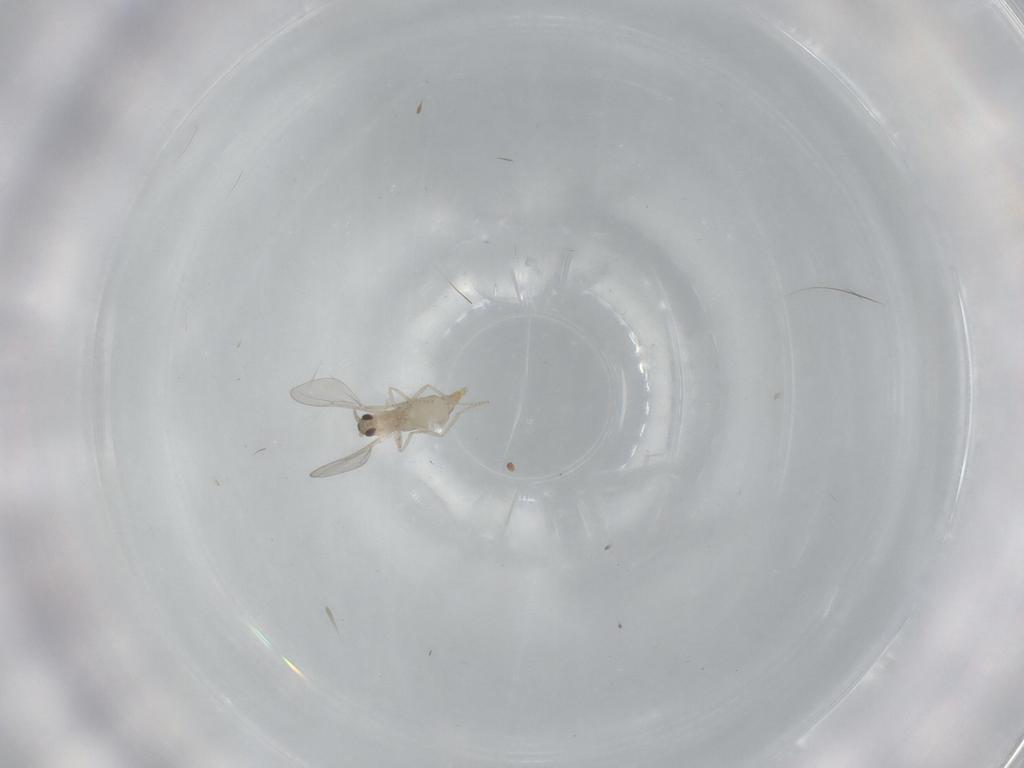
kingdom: Animalia
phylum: Arthropoda
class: Insecta
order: Diptera
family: Cecidomyiidae
